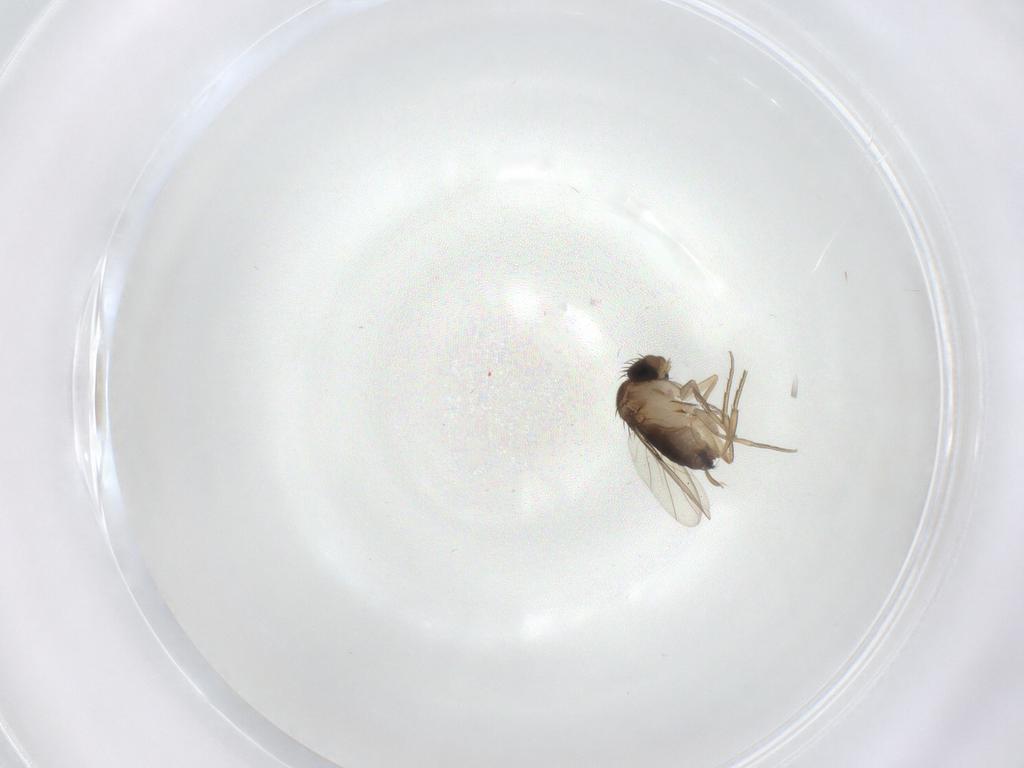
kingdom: Animalia
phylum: Arthropoda
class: Insecta
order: Diptera
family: Phoridae
